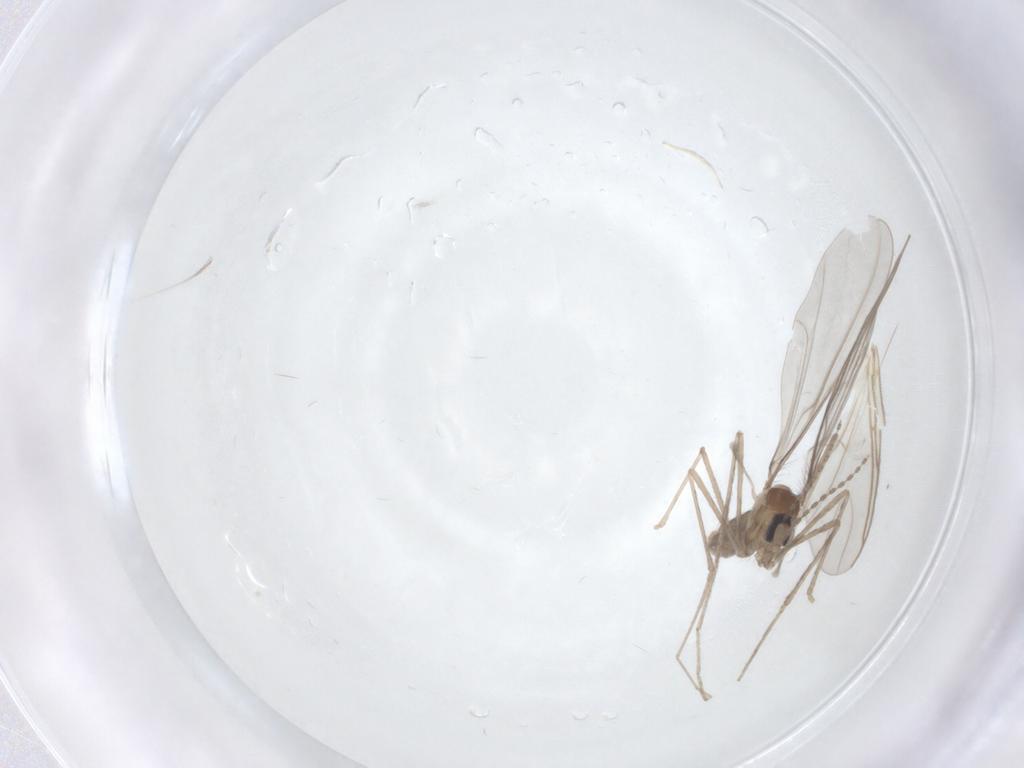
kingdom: Animalia
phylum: Arthropoda
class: Insecta
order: Diptera
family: Cecidomyiidae
